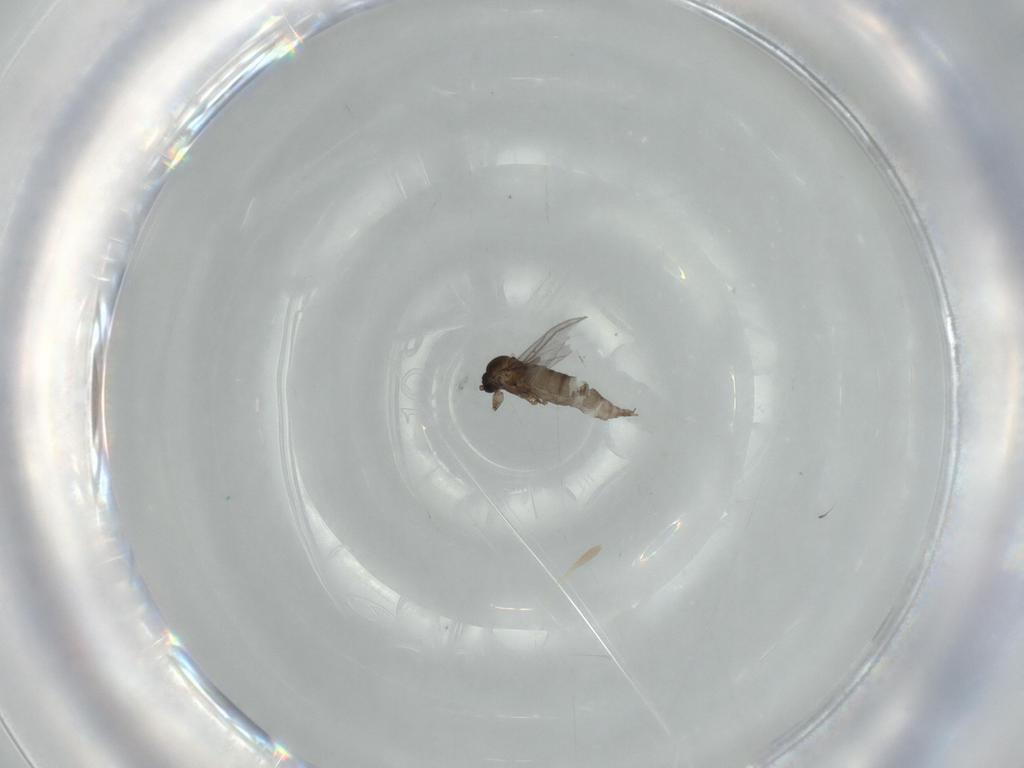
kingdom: Animalia
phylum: Arthropoda
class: Insecta
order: Diptera
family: Sciaridae
